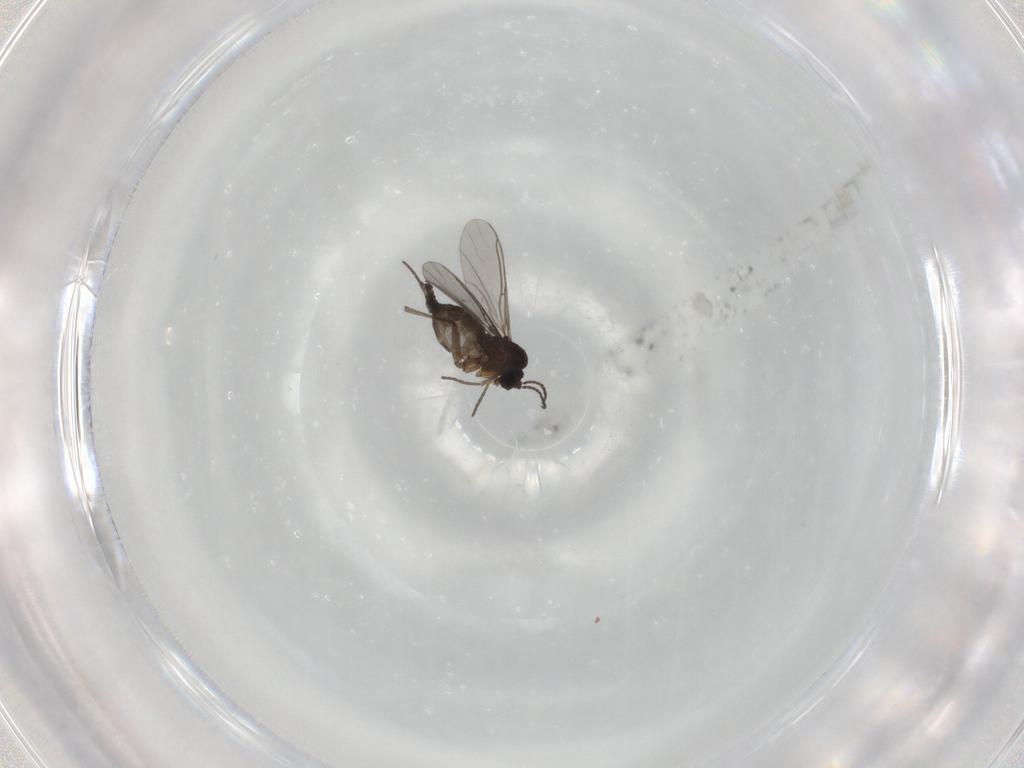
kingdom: Animalia
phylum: Arthropoda
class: Insecta
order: Diptera
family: Sciaridae
